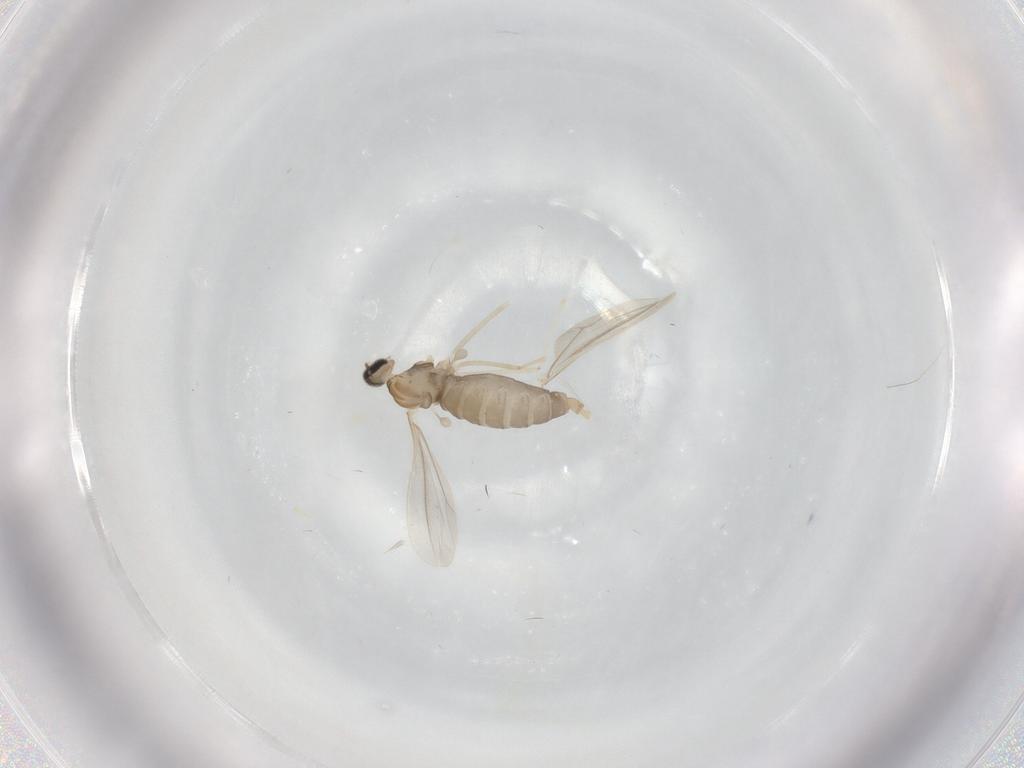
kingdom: Animalia
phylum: Arthropoda
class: Insecta
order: Diptera
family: Cecidomyiidae
